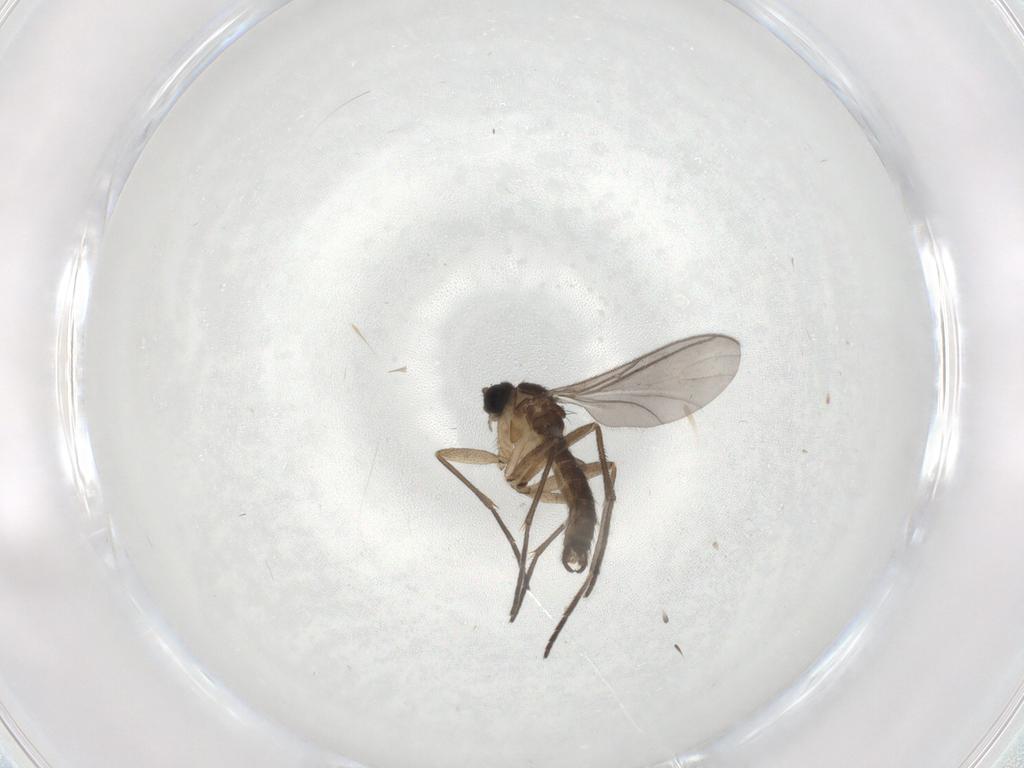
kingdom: Animalia
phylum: Arthropoda
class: Insecta
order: Diptera
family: Sciaridae
